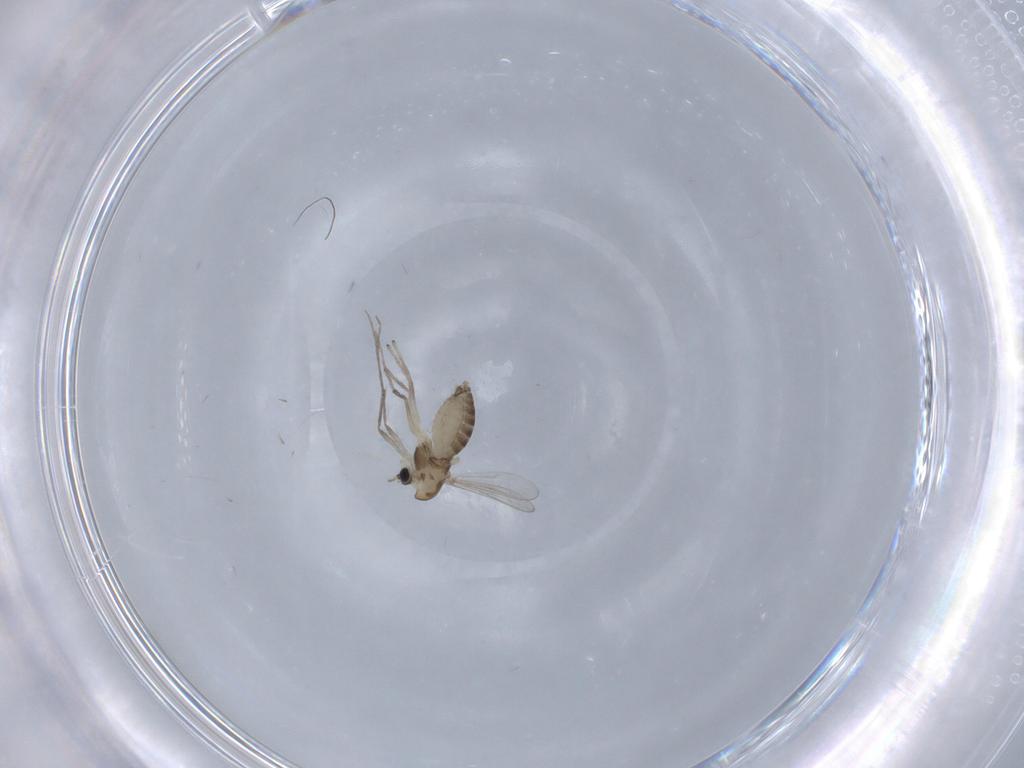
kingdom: Animalia
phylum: Arthropoda
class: Insecta
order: Diptera
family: Chironomidae
